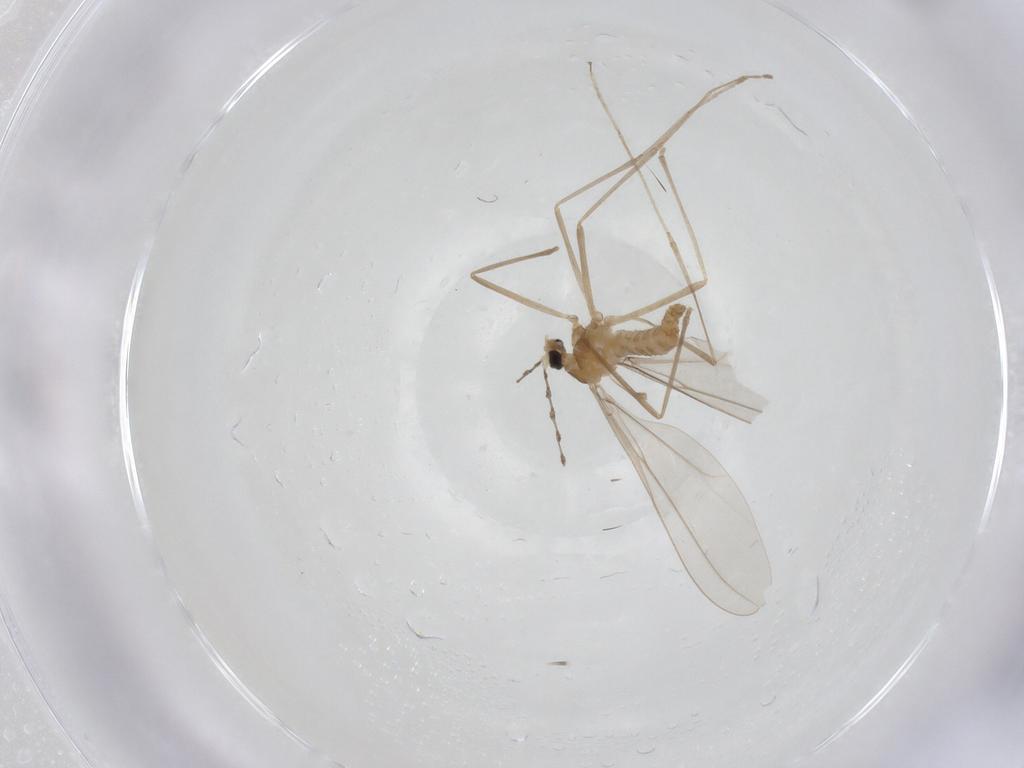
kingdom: Animalia
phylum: Arthropoda
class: Insecta
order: Diptera
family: Cecidomyiidae
